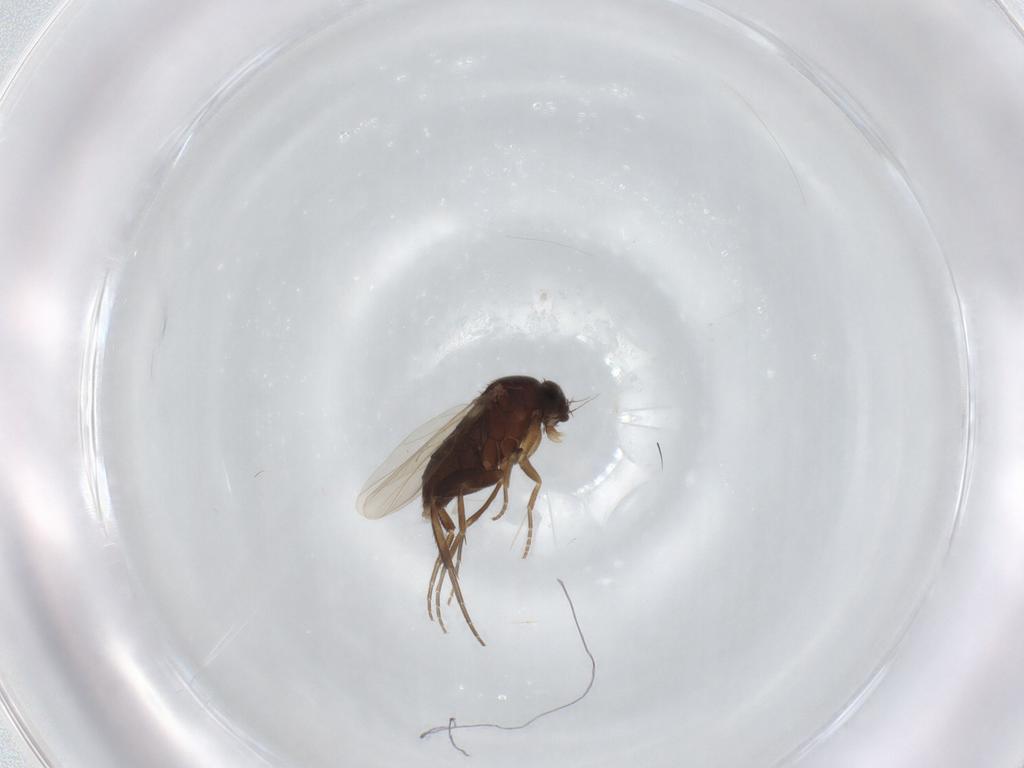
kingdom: Animalia
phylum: Arthropoda
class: Insecta
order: Diptera
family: Phoridae
